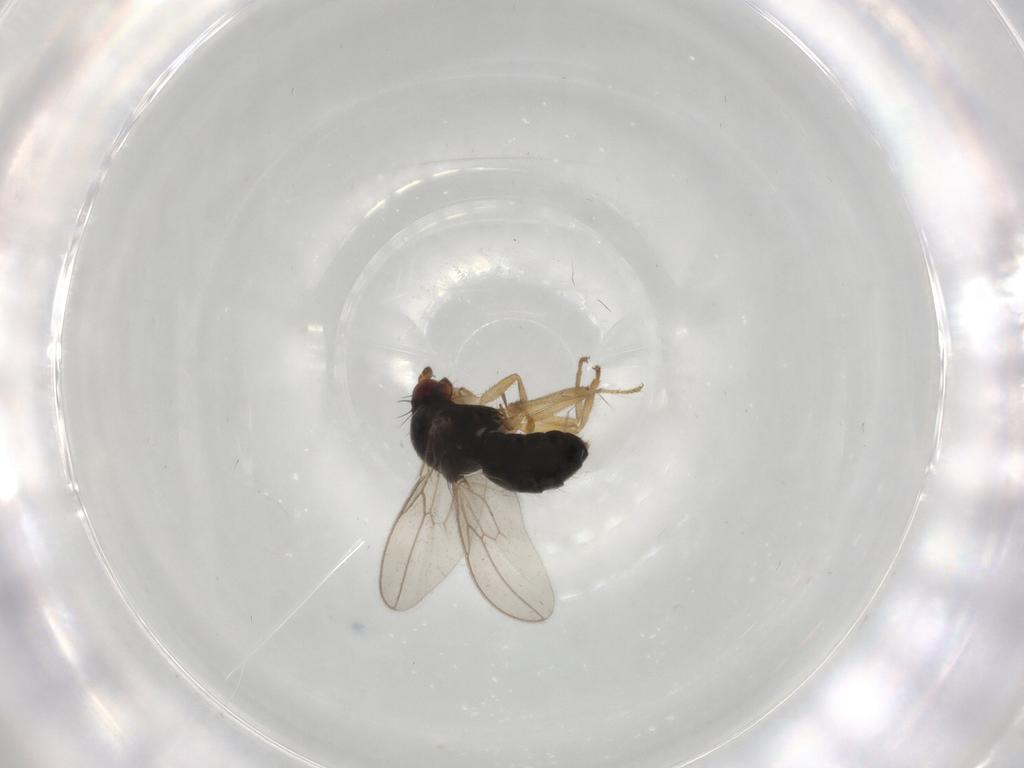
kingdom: Animalia
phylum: Arthropoda
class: Insecta
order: Diptera
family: Sphaeroceridae
